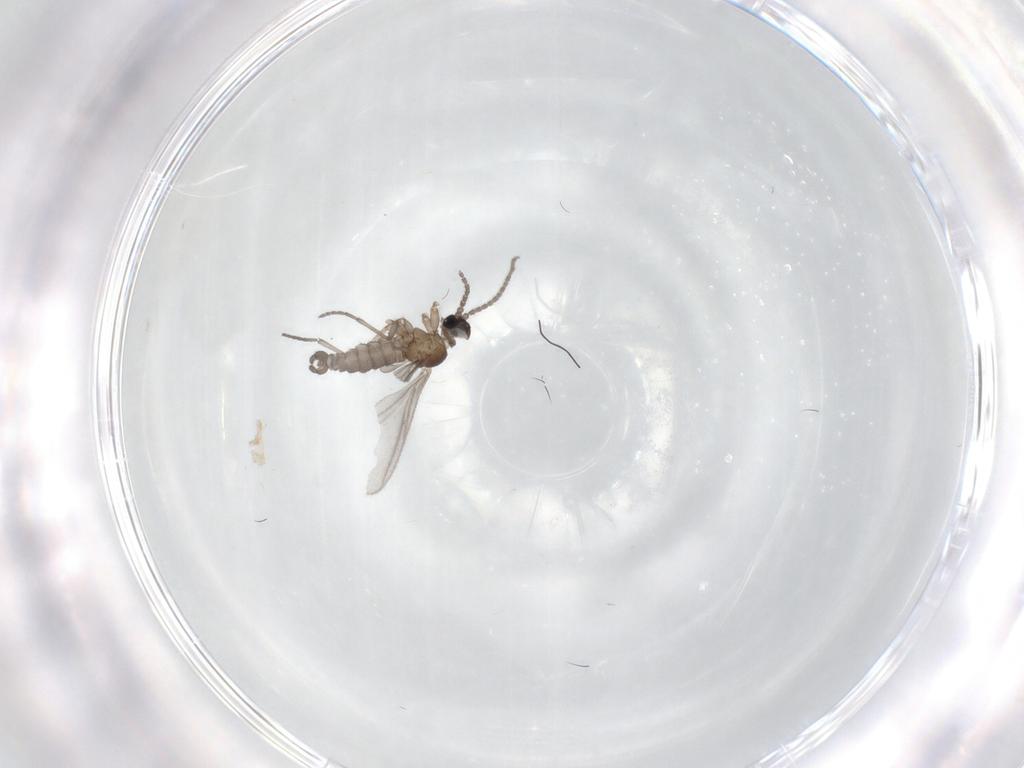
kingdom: Animalia
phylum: Arthropoda
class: Insecta
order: Diptera
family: Sciaridae
